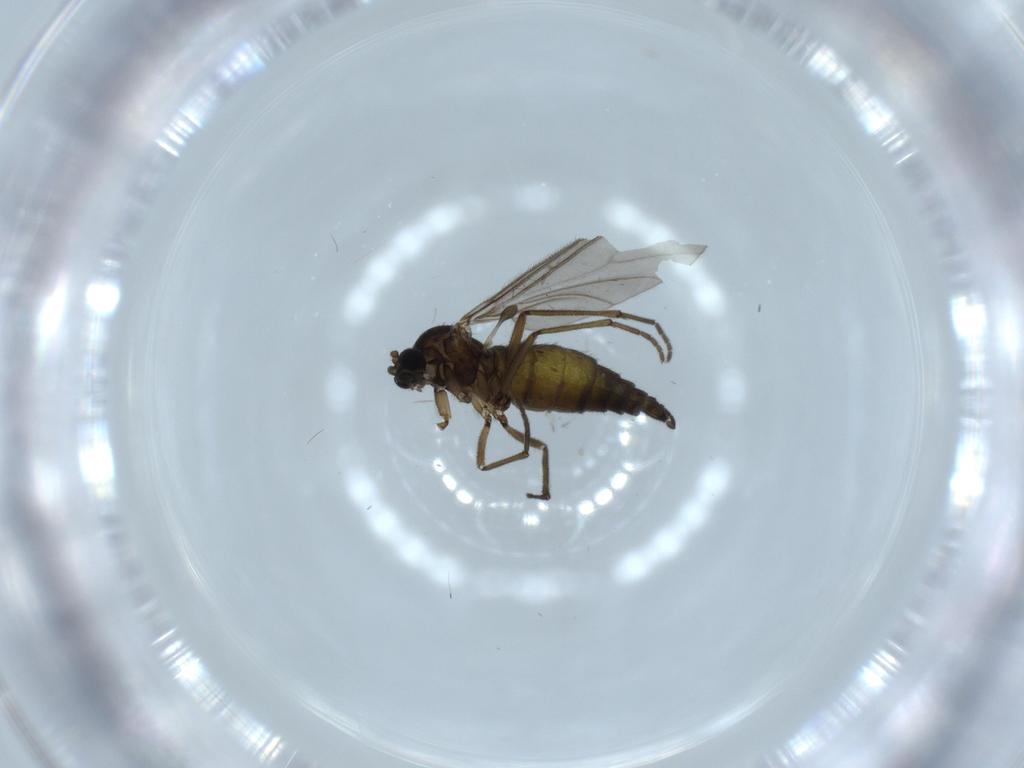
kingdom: Animalia
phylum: Arthropoda
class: Insecta
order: Diptera
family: Sciaridae
